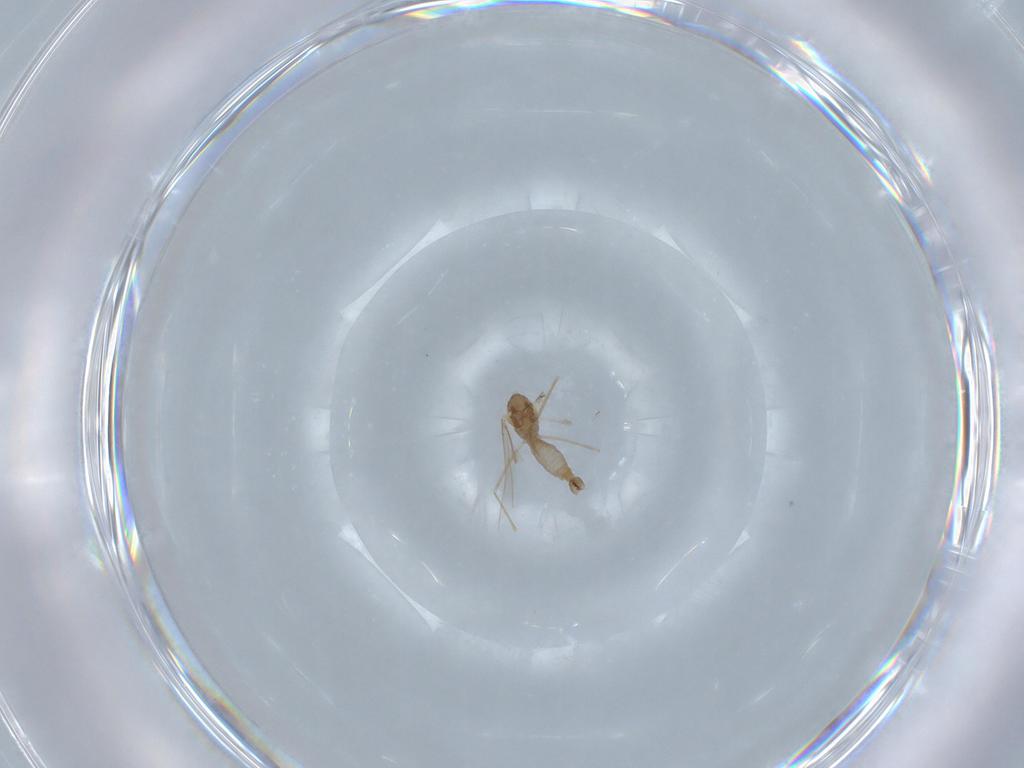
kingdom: Animalia
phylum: Arthropoda
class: Insecta
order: Diptera
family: Cecidomyiidae
